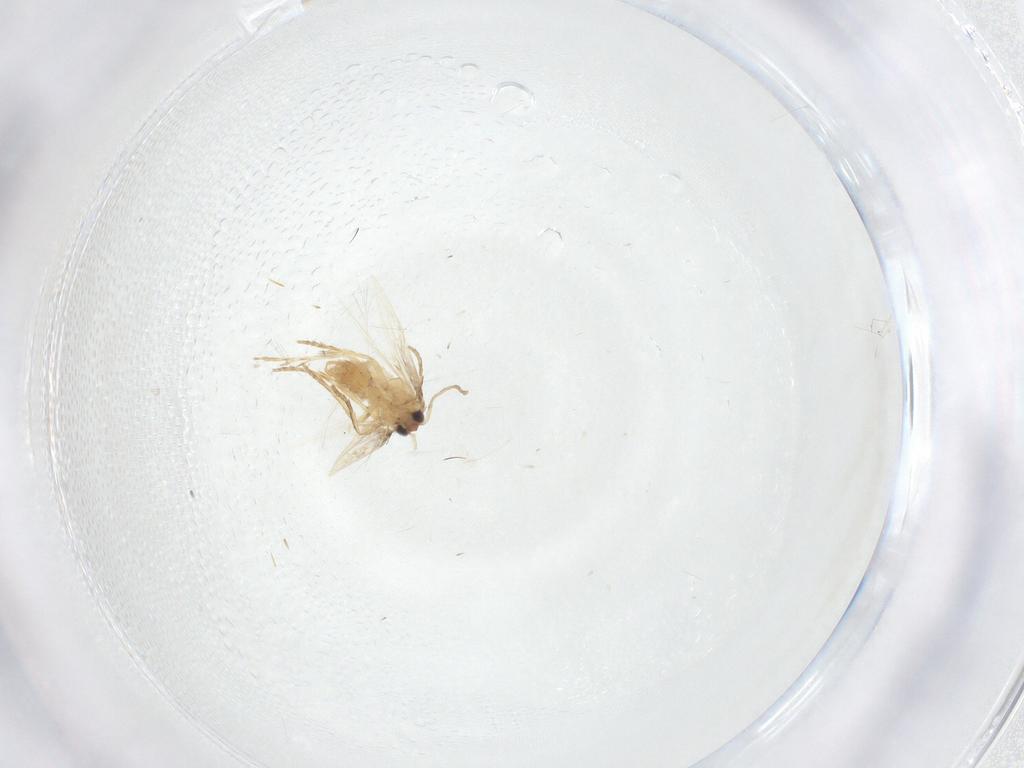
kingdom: Animalia
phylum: Arthropoda
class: Insecta
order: Lepidoptera
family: Nepticulidae
